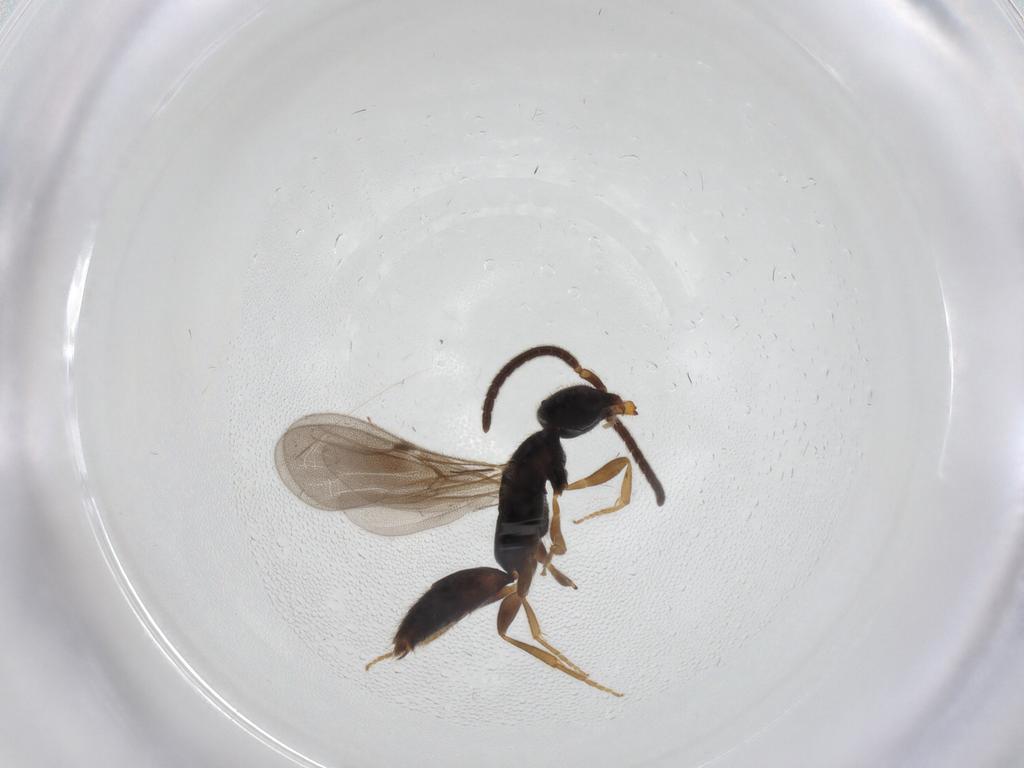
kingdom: Animalia
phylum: Arthropoda
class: Insecta
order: Hymenoptera
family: Bethylidae
